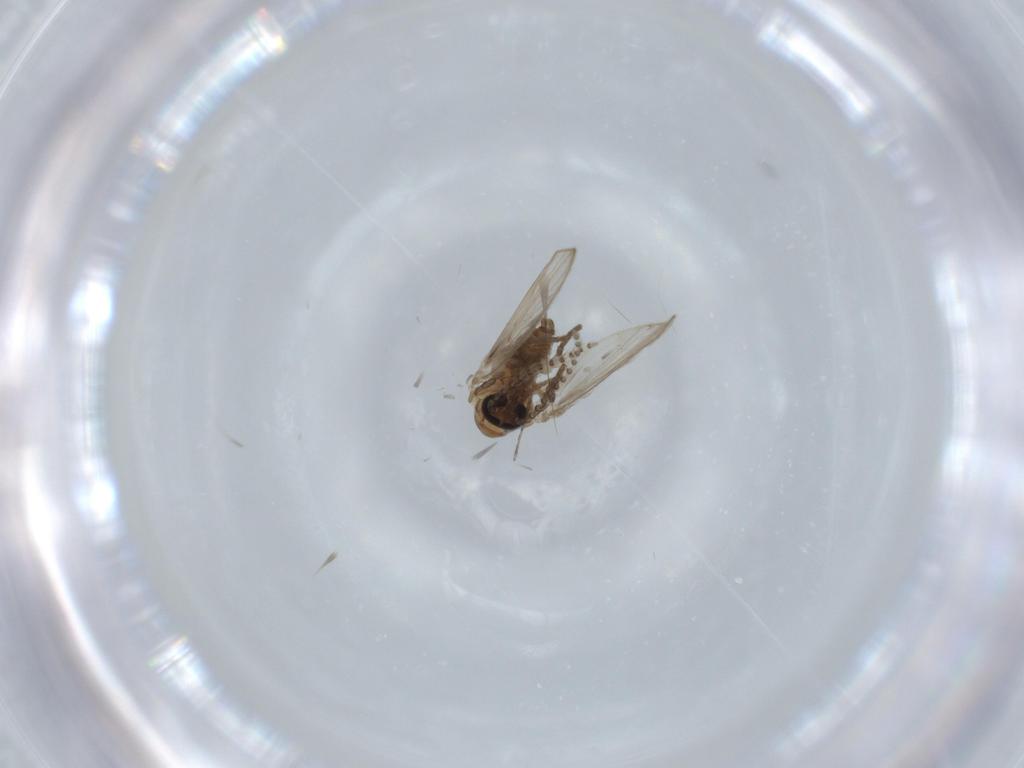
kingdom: Animalia
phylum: Arthropoda
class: Insecta
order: Diptera
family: Psychodidae
